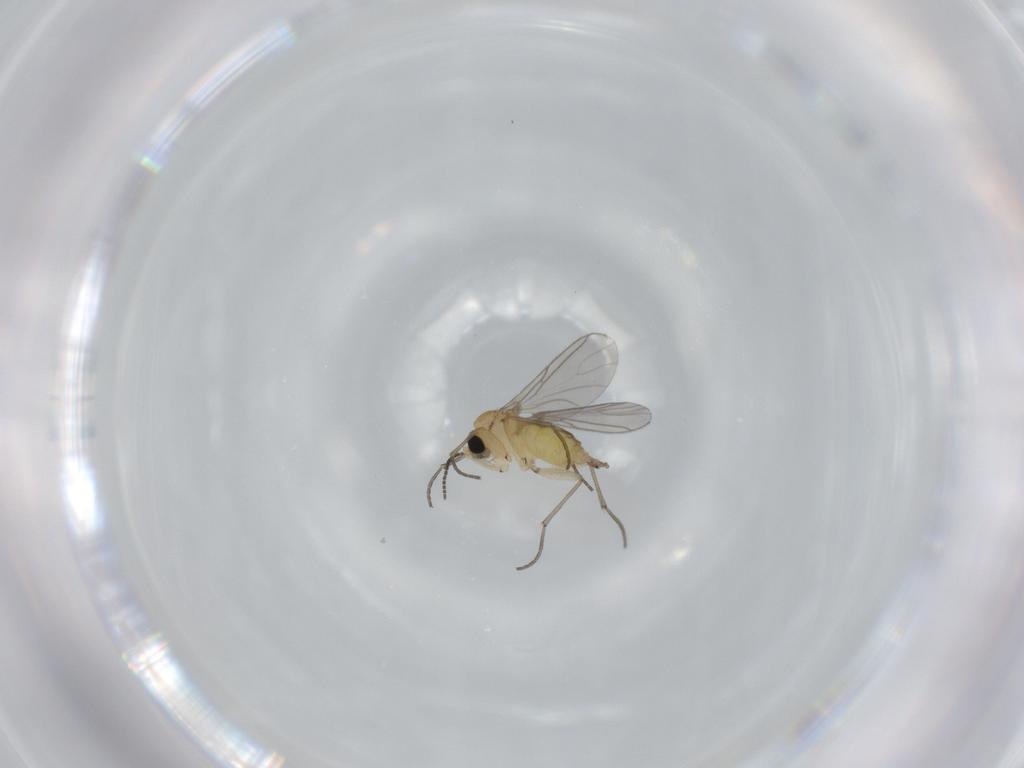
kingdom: Animalia
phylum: Arthropoda
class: Insecta
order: Diptera
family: Sciaridae
